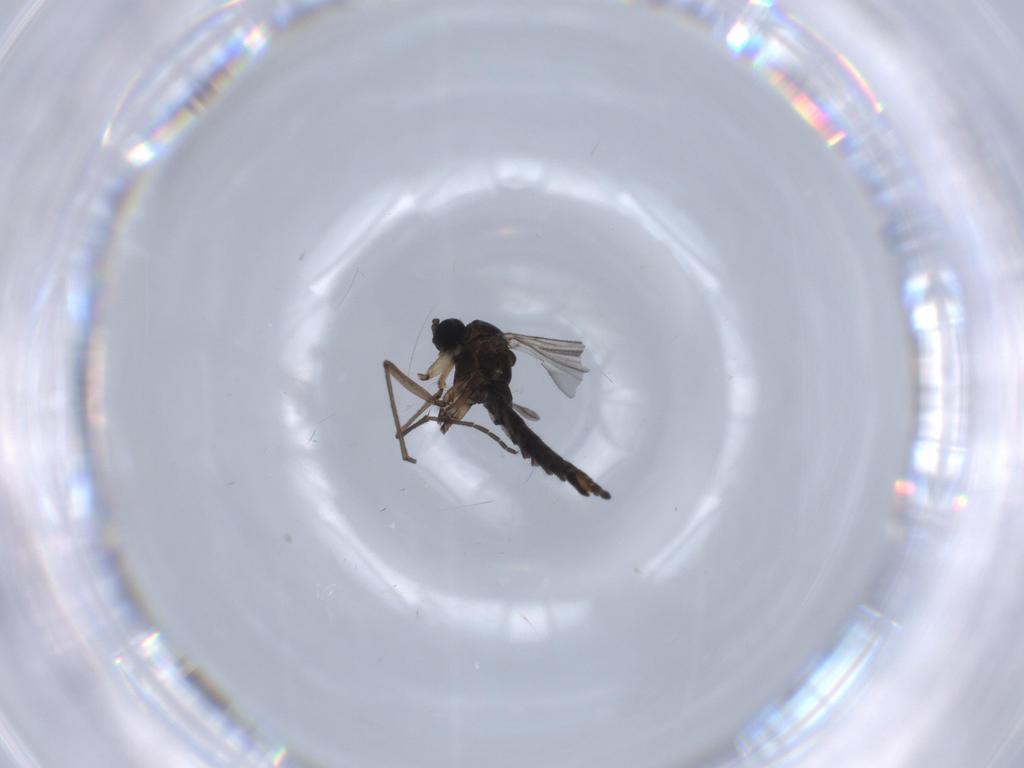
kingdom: Animalia
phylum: Arthropoda
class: Insecta
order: Diptera
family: Sciaridae
